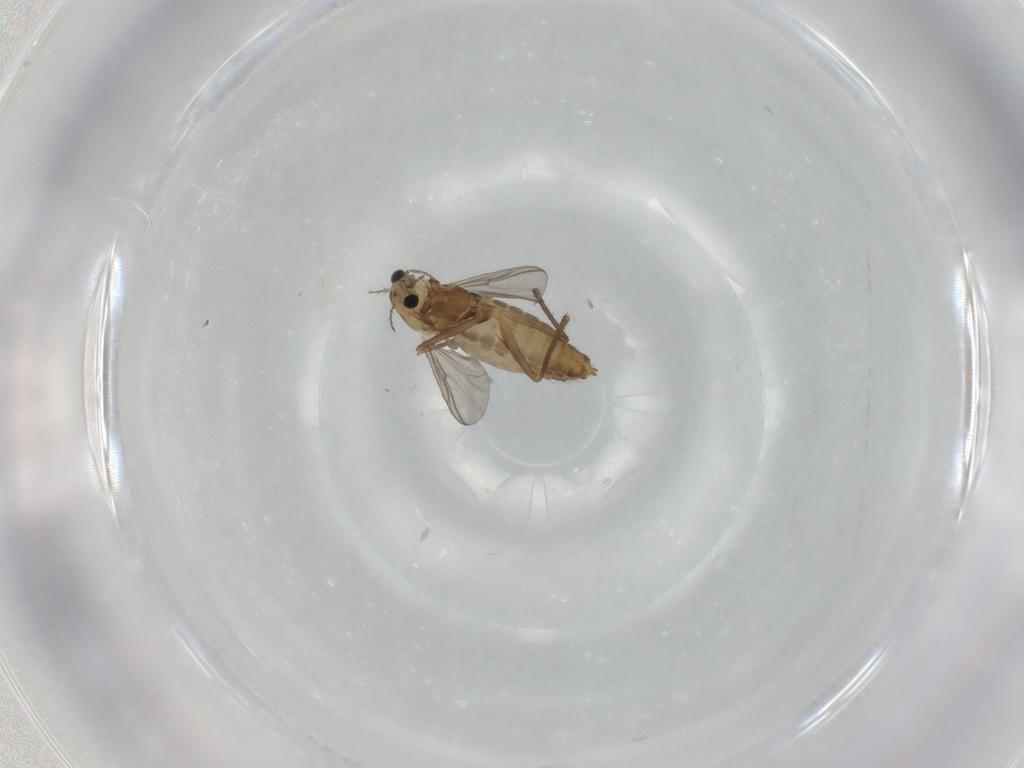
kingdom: Animalia
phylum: Arthropoda
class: Insecta
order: Diptera
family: Chironomidae
